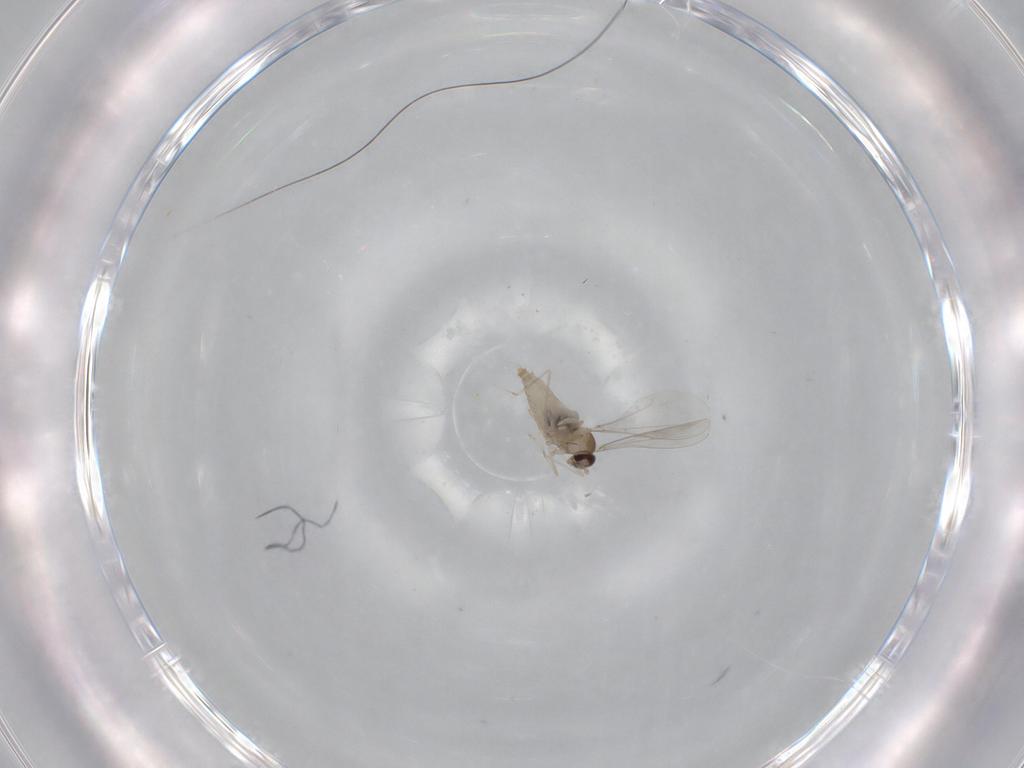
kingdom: Animalia
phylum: Arthropoda
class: Insecta
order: Diptera
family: Cecidomyiidae
